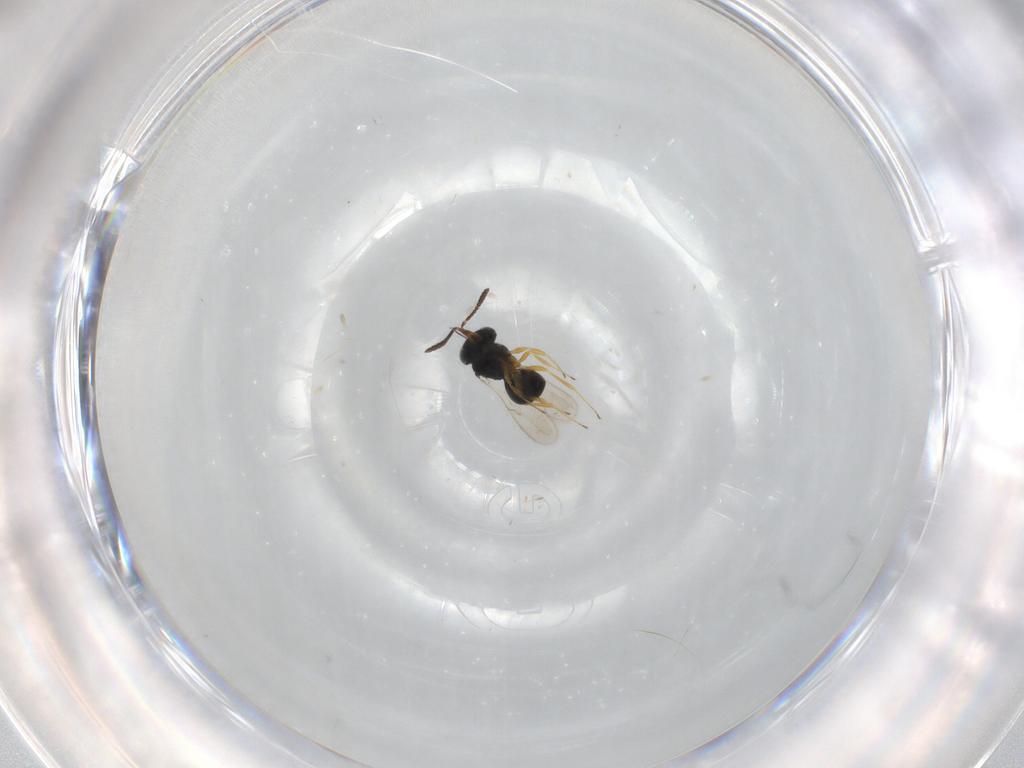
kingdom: Animalia
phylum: Arthropoda
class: Insecta
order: Hymenoptera
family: Scelionidae
